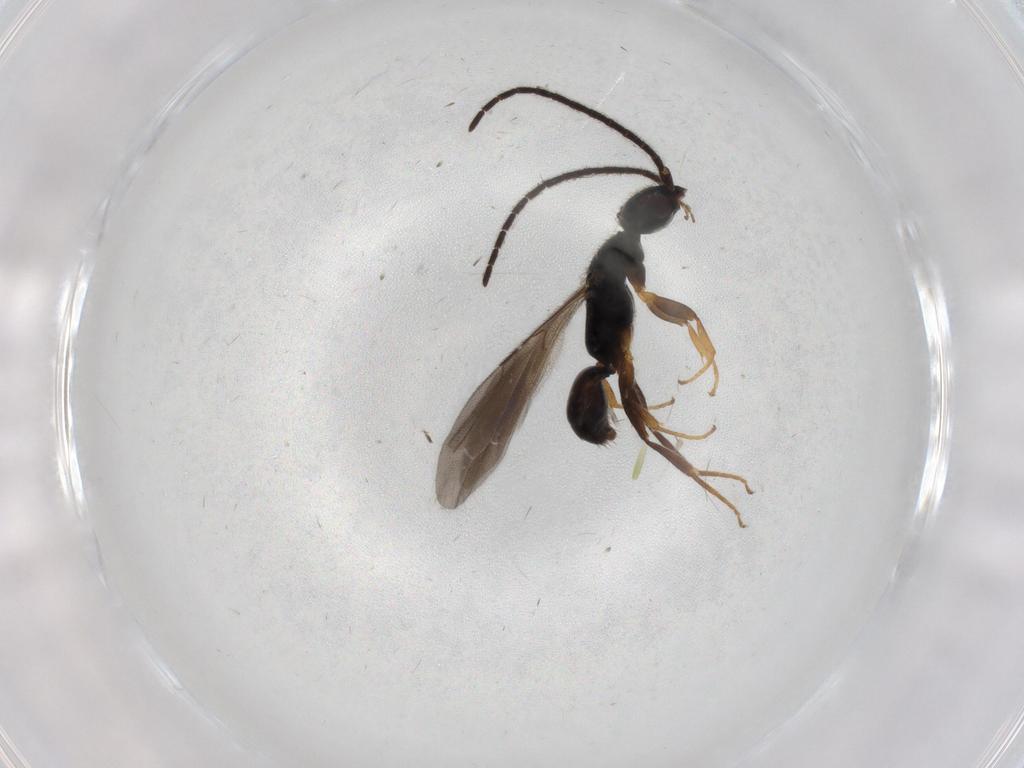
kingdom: Animalia
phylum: Arthropoda
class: Insecta
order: Hymenoptera
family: Bethylidae
